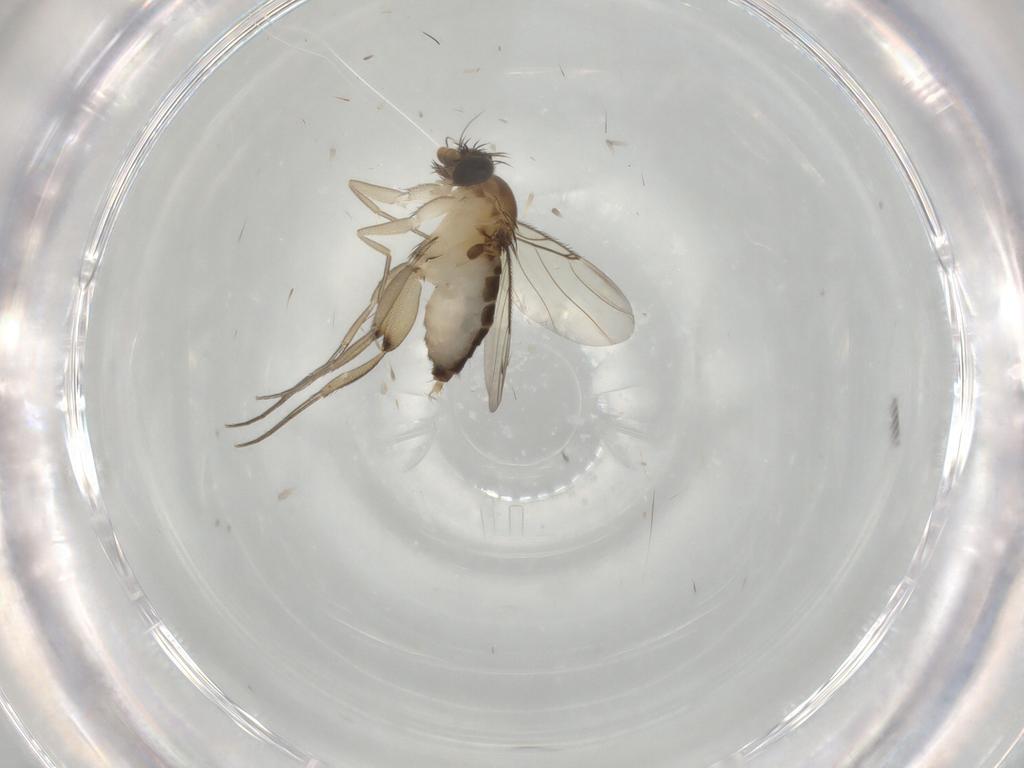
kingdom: Animalia
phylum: Arthropoda
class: Insecta
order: Diptera
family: Phoridae
